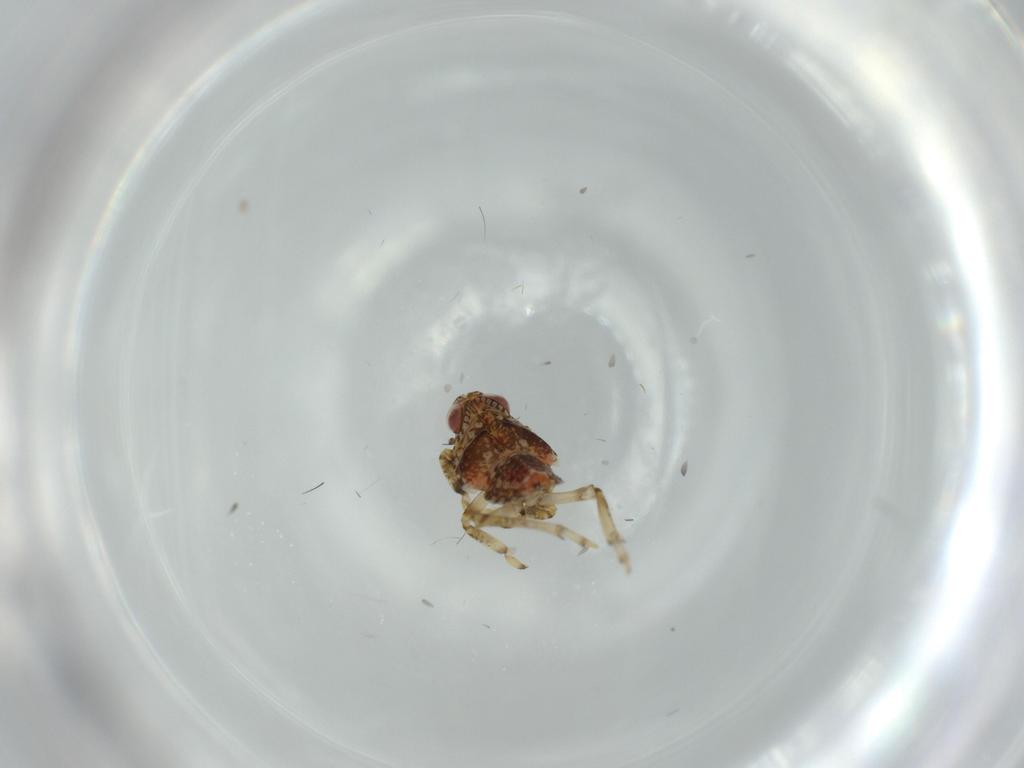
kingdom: Animalia
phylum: Arthropoda
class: Insecta
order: Hemiptera
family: Issidae
